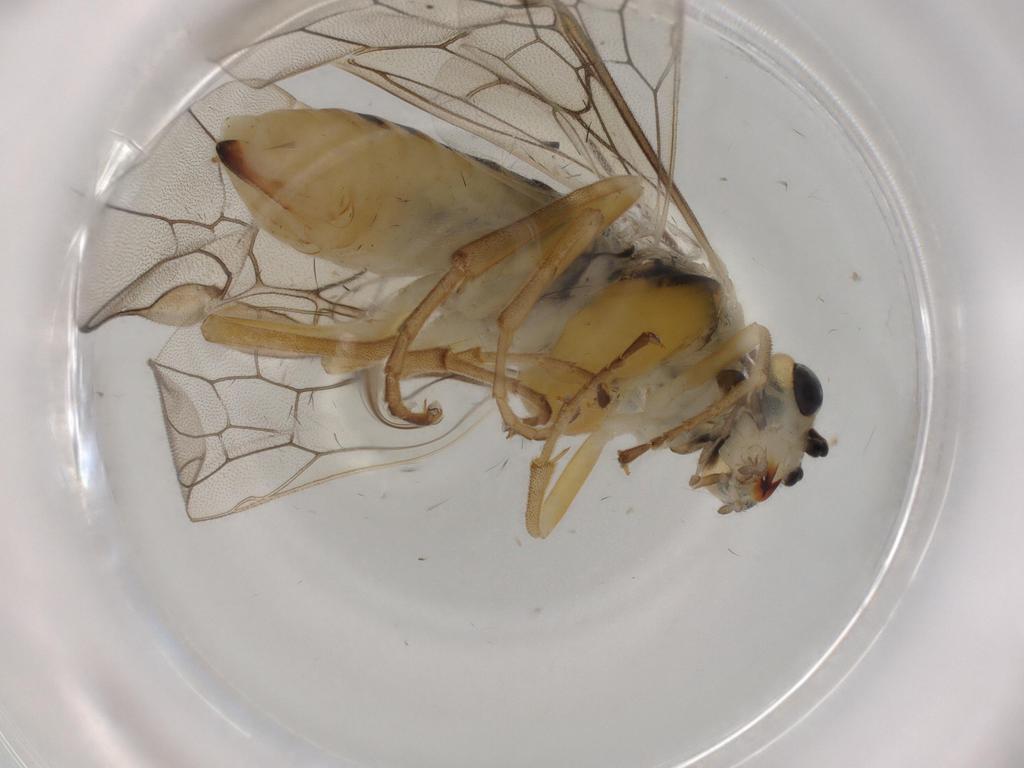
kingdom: Animalia
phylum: Arthropoda
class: Insecta
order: Hymenoptera
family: Tenthredinidae
